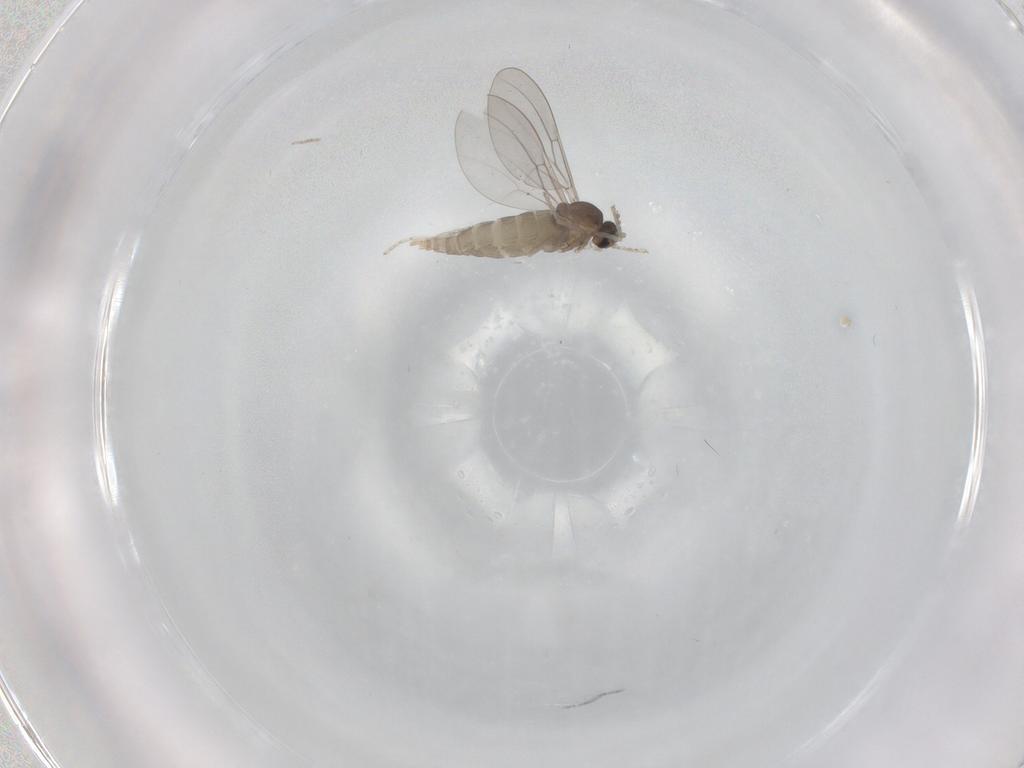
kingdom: Animalia
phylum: Arthropoda
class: Insecta
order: Diptera
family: Cecidomyiidae
